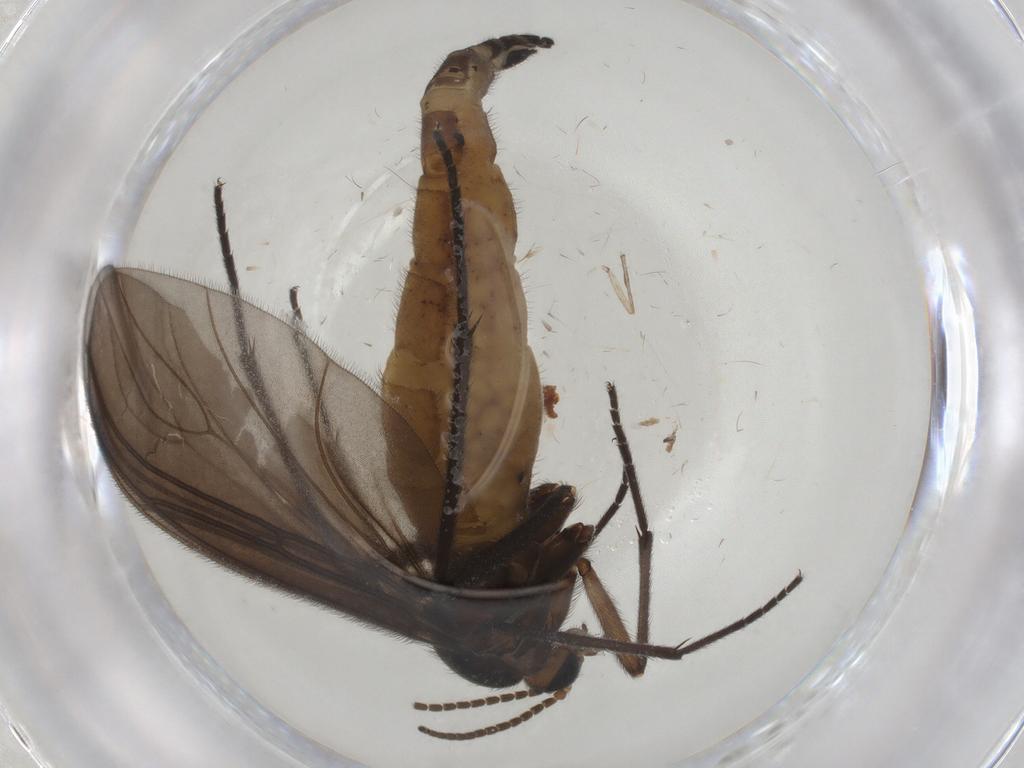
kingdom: Animalia
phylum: Arthropoda
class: Insecta
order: Diptera
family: Sciaridae
